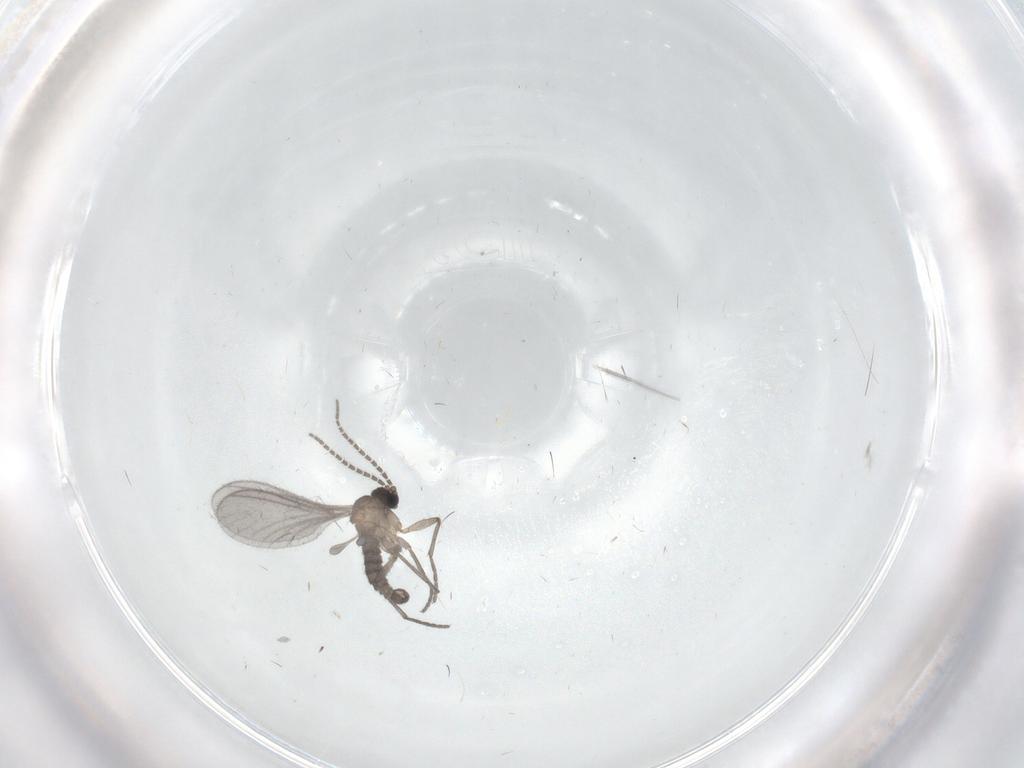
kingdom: Animalia
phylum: Arthropoda
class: Insecta
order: Diptera
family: Sciaridae
